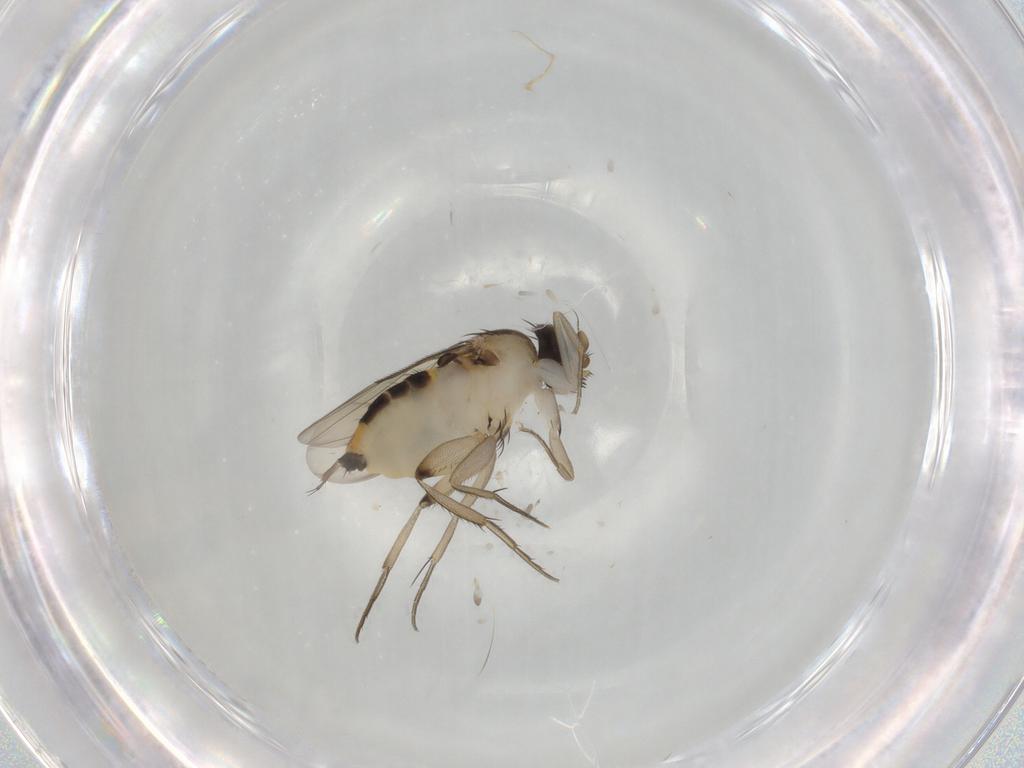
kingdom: Animalia
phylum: Arthropoda
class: Insecta
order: Diptera
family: Phoridae
